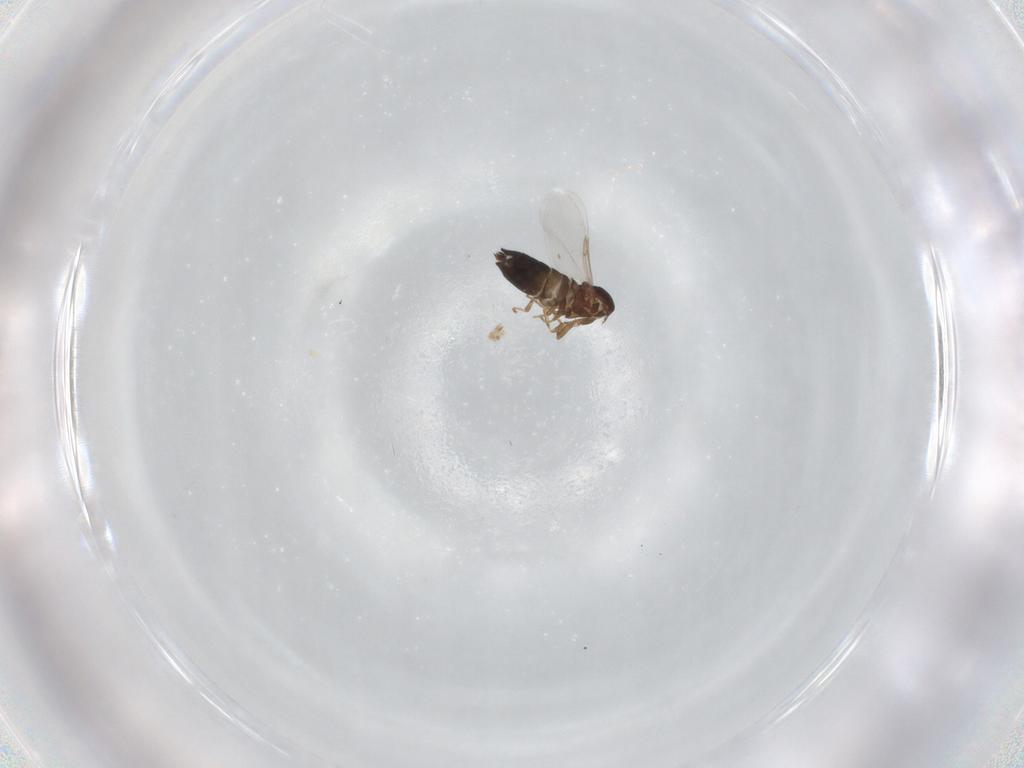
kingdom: Animalia
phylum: Arthropoda
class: Insecta
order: Diptera
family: Scatopsidae
